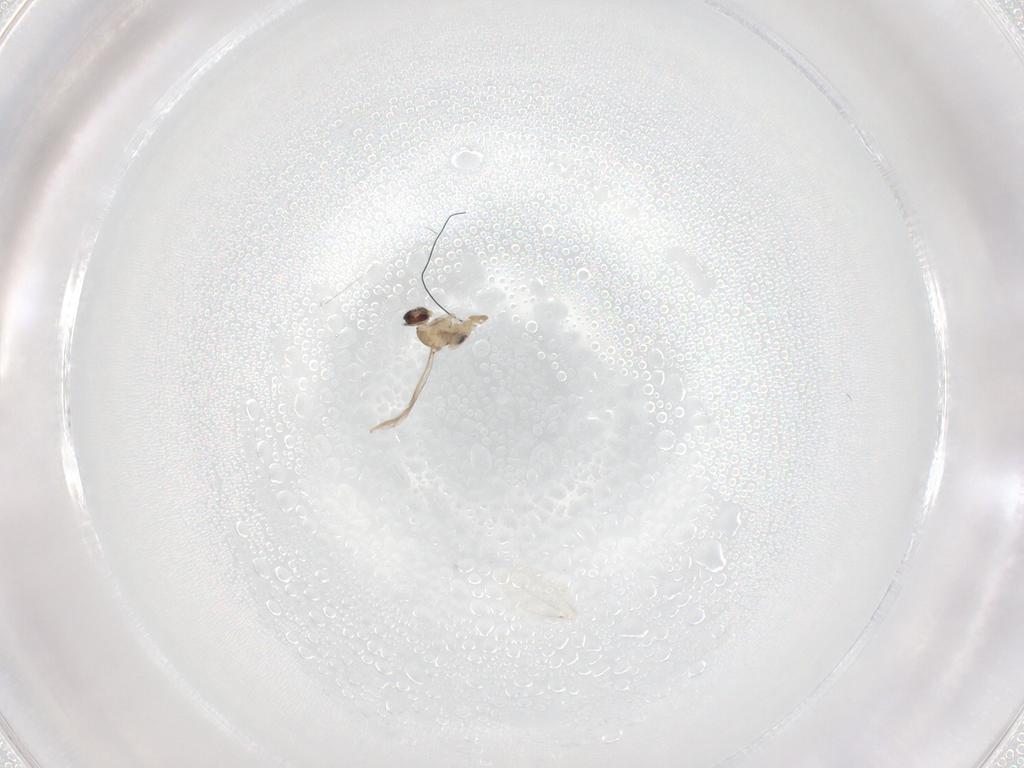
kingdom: Animalia
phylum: Arthropoda
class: Insecta
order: Diptera
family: Cecidomyiidae
